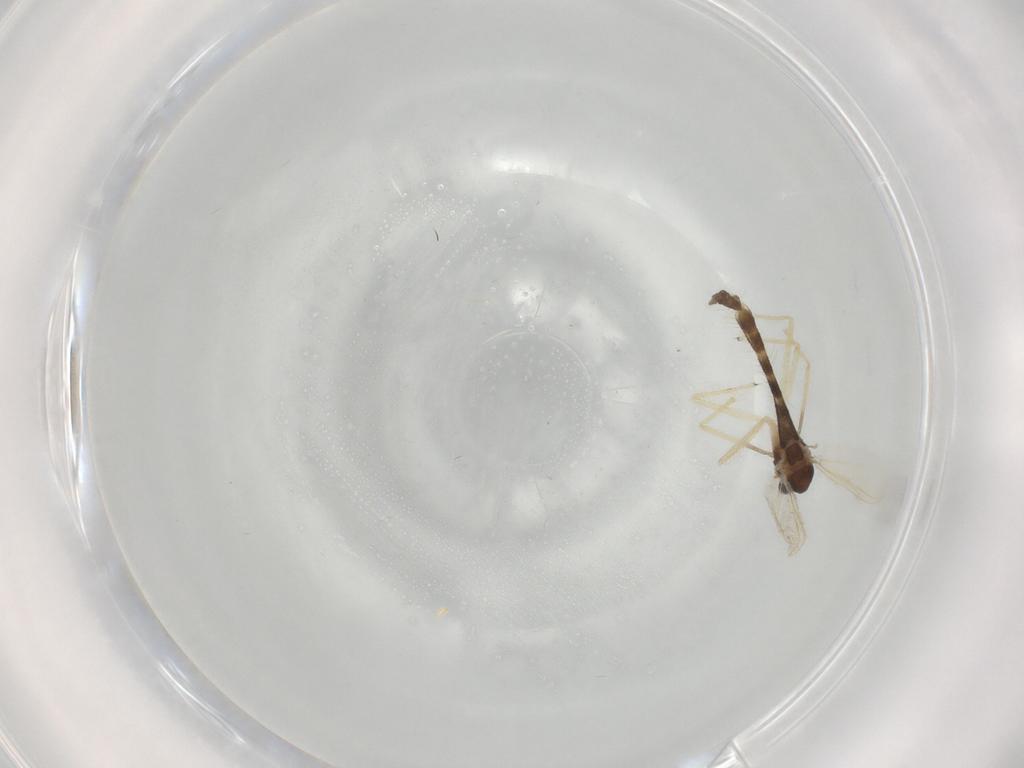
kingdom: Animalia
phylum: Arthropoda
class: Insecta
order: Diptera
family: Chironomidae
